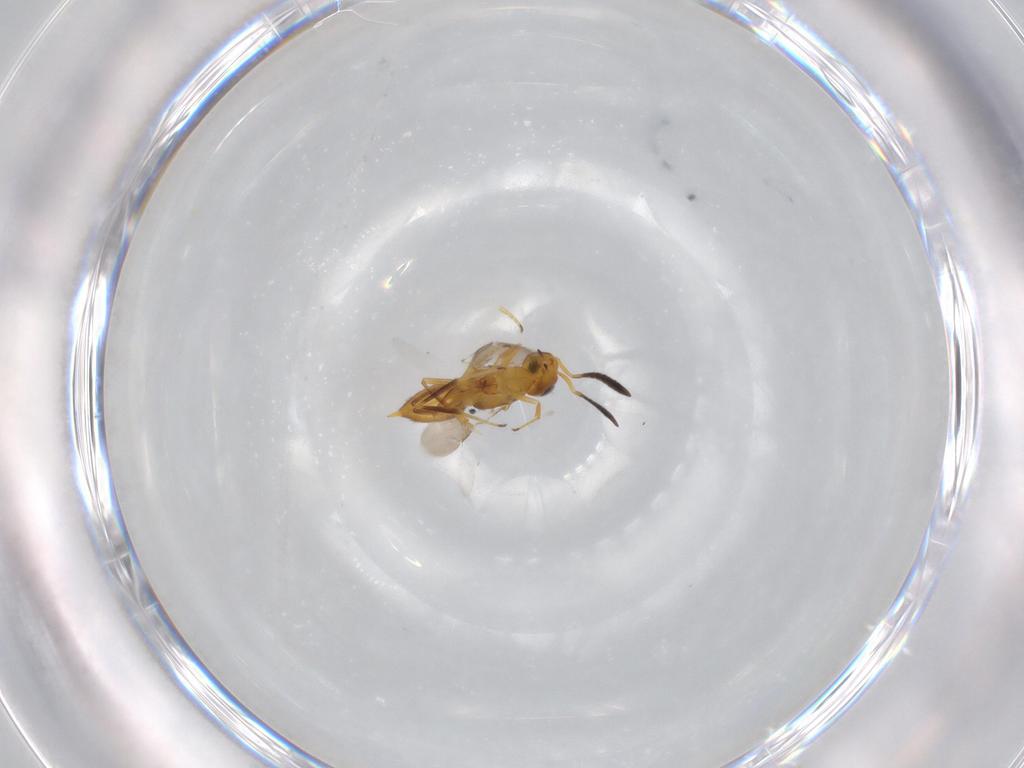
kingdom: Animalia
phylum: Arthropoda
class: Insecta
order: Hymenoptera
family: Encyrtidae
